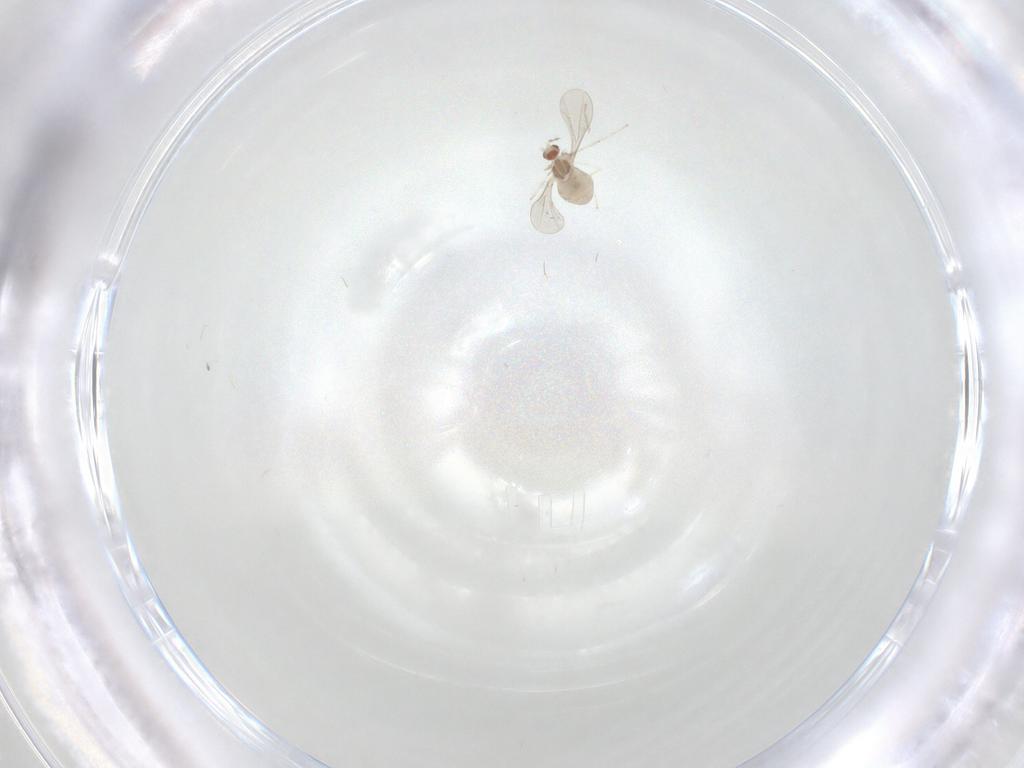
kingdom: Animalia
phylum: Arthropoda
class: Insecta
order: Diptera
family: Cecidomyiidae
